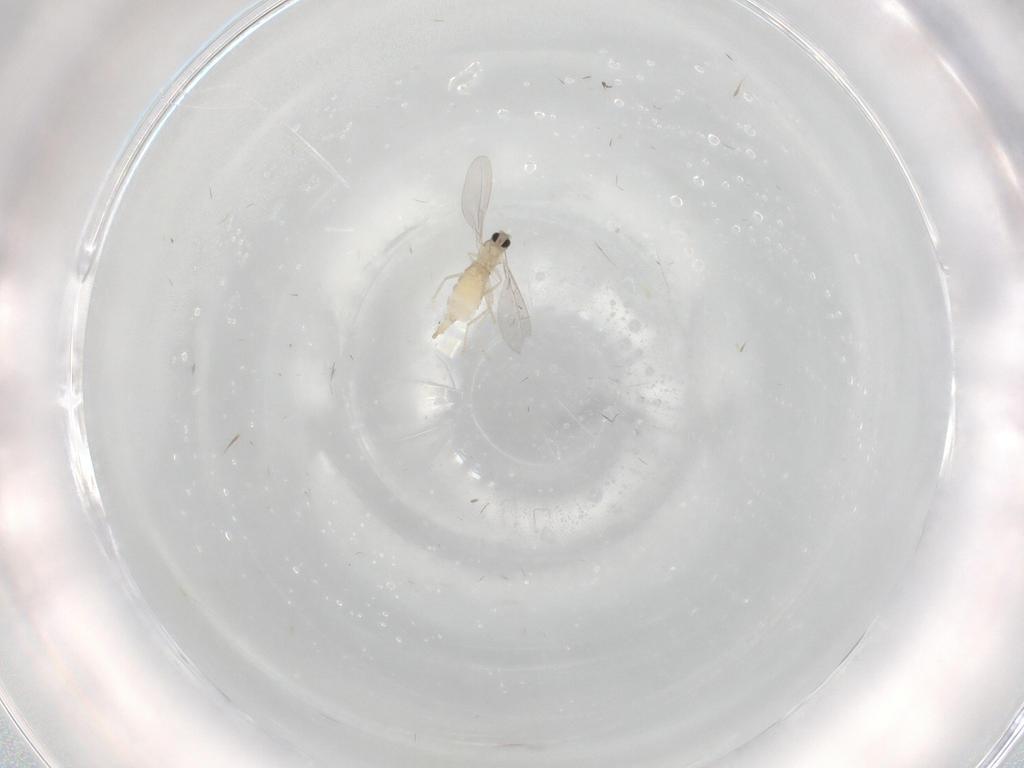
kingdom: Animalia
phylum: Arthropoda
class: Insecta
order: Diptera
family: Cecidomyiidae
